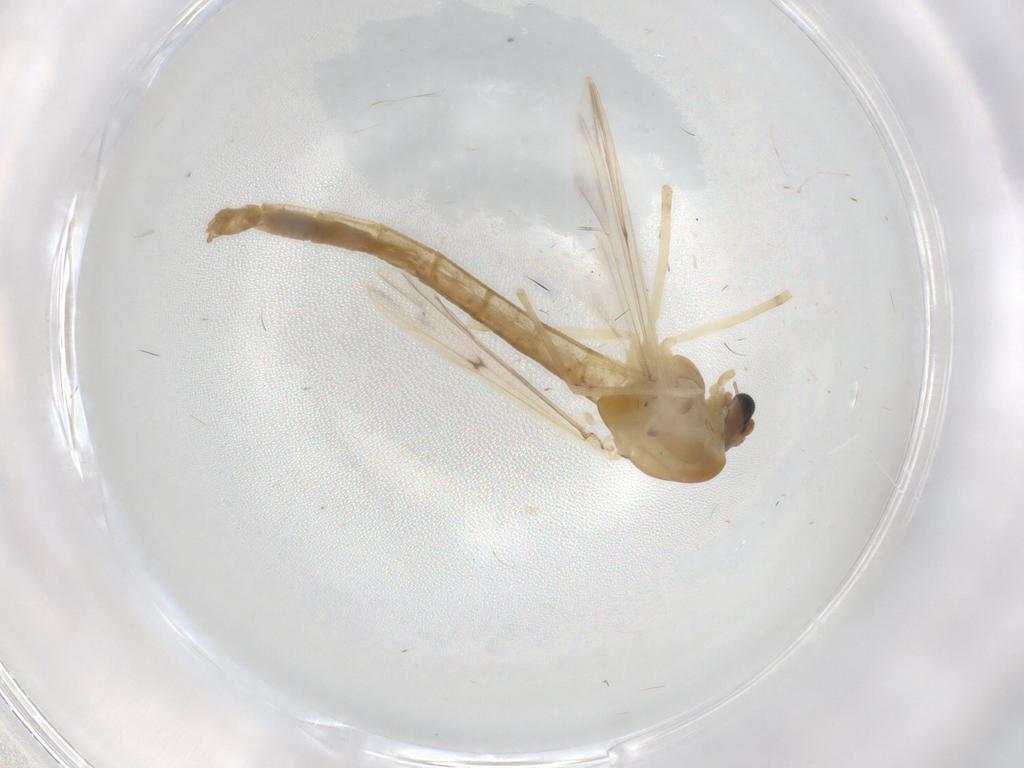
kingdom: Animalia
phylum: Arthropoda
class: Insecta
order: Diptera
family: Chironomidae
